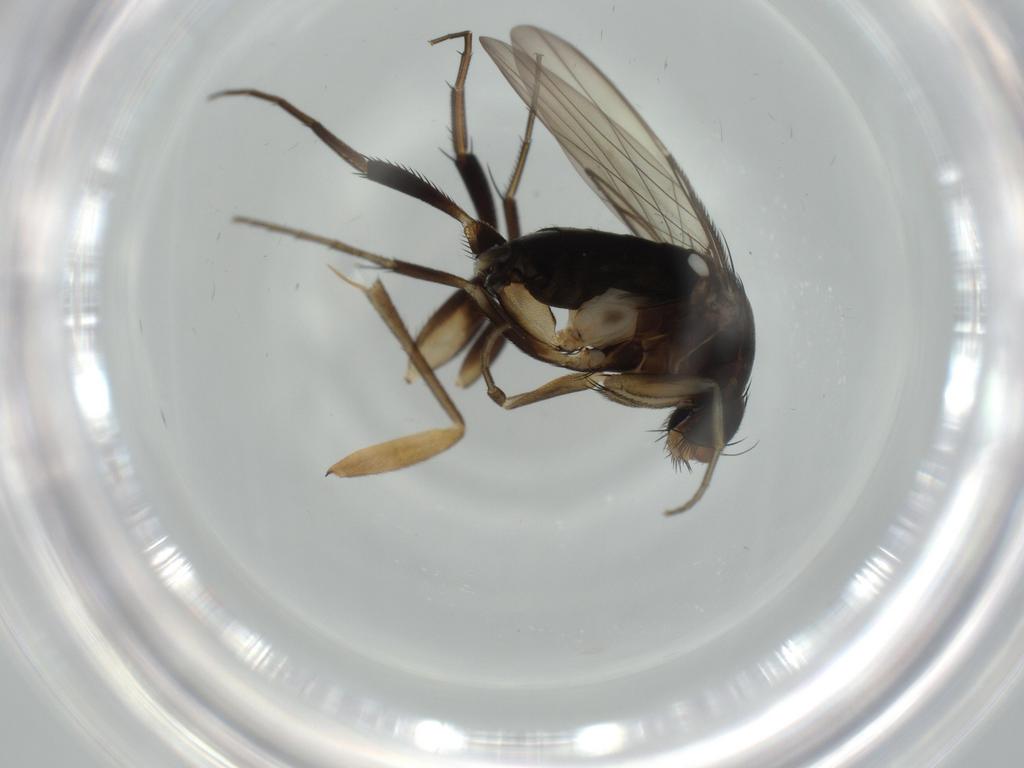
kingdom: Animalia
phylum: Arthropoda
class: Insecta
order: Diptera
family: Phoridae
